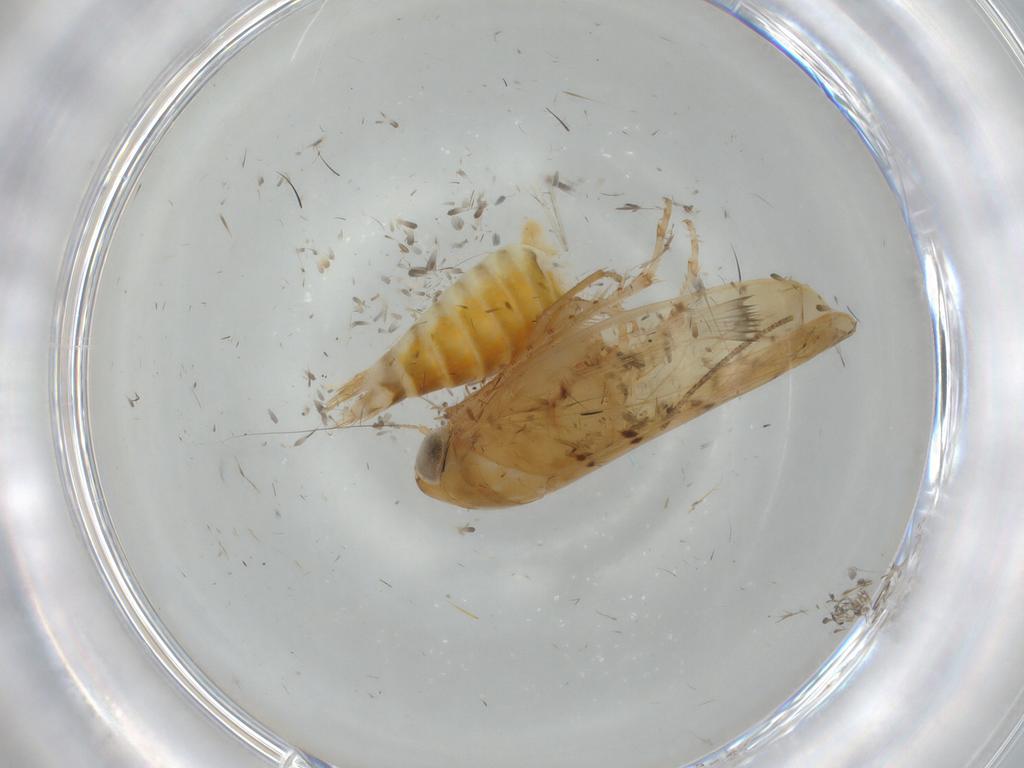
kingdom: Animalia
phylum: Arthropoda
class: Insecta
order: Hemiptera
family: Cicadellidae
